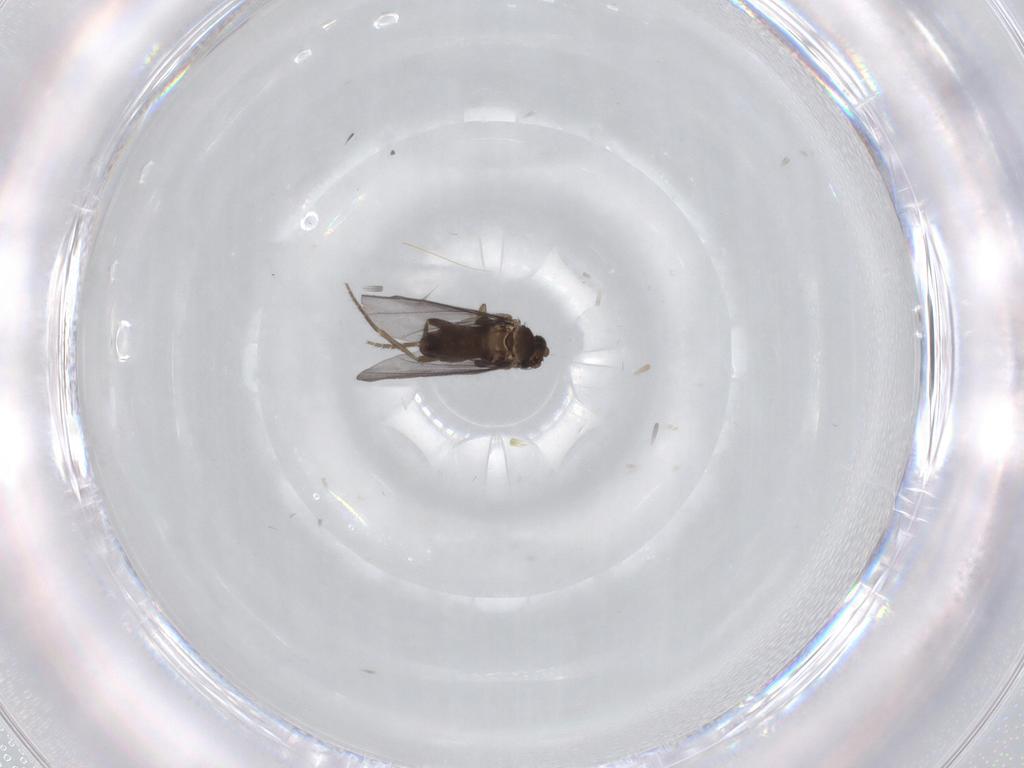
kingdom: Animalia
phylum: Arthropoda
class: Insecta
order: Diptera
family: Phoridae
